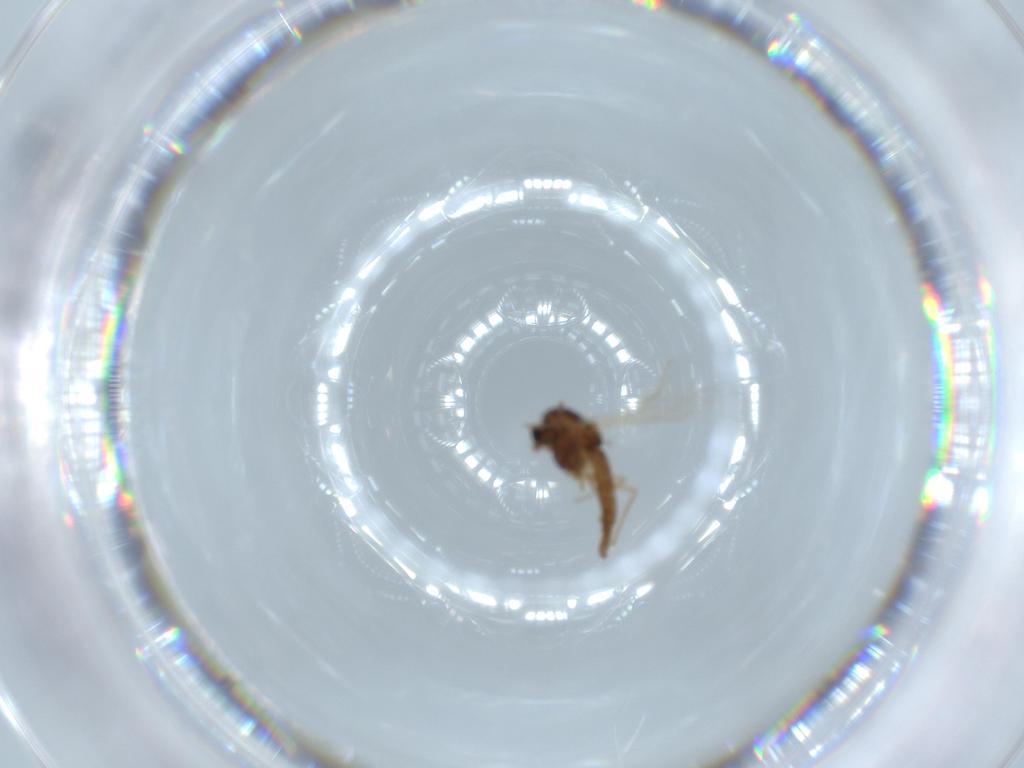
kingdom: Animalia
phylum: Arthropoda
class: Insecta
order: Diptera
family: Chironomidae
